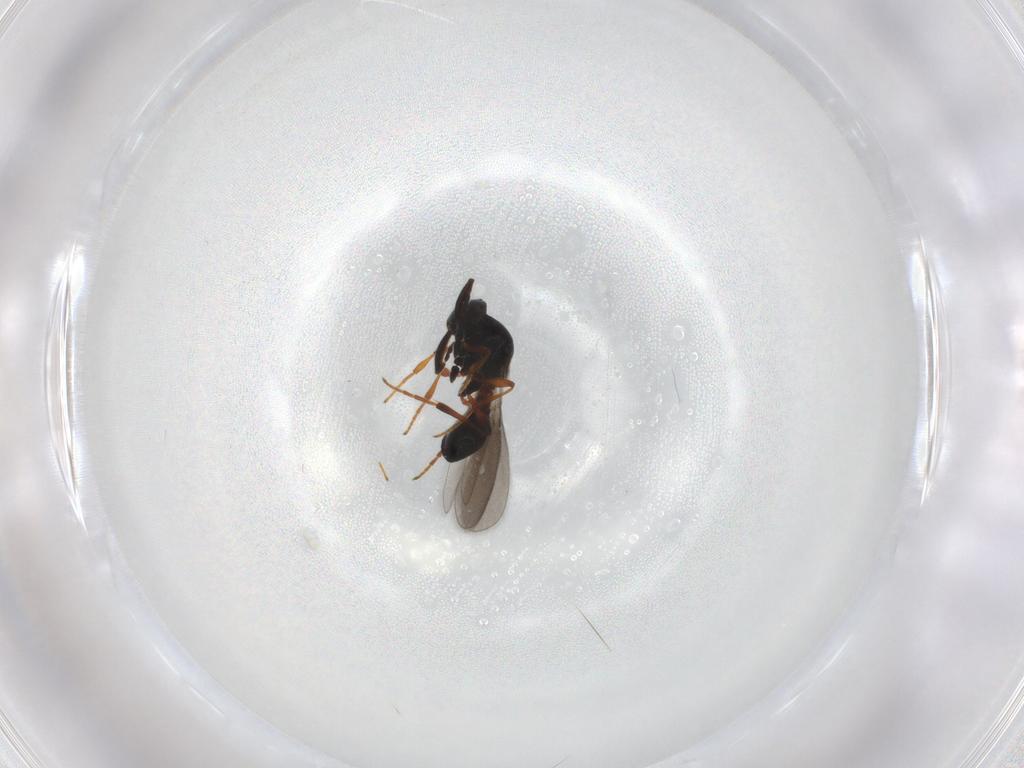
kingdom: Animalia
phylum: Arthropoda
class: Insecta
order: Hymenoptera
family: Platygastridae
